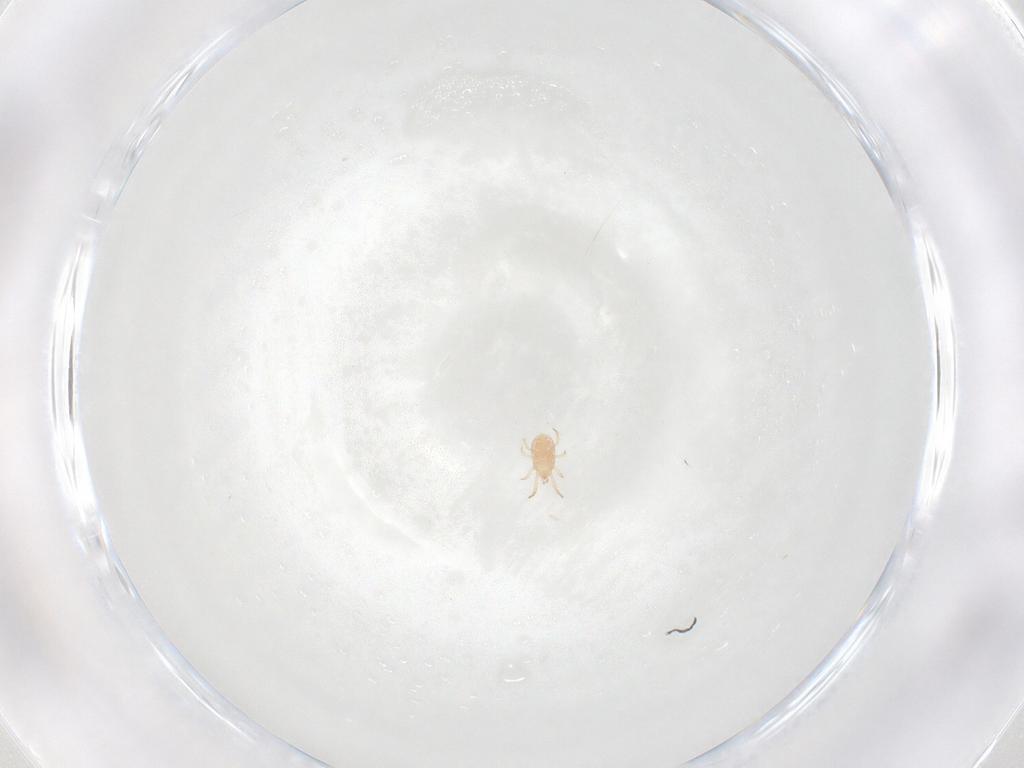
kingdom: Animalia
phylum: Arthropoda
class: Arachnida
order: Mesostigmata
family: Phytoseiidae
